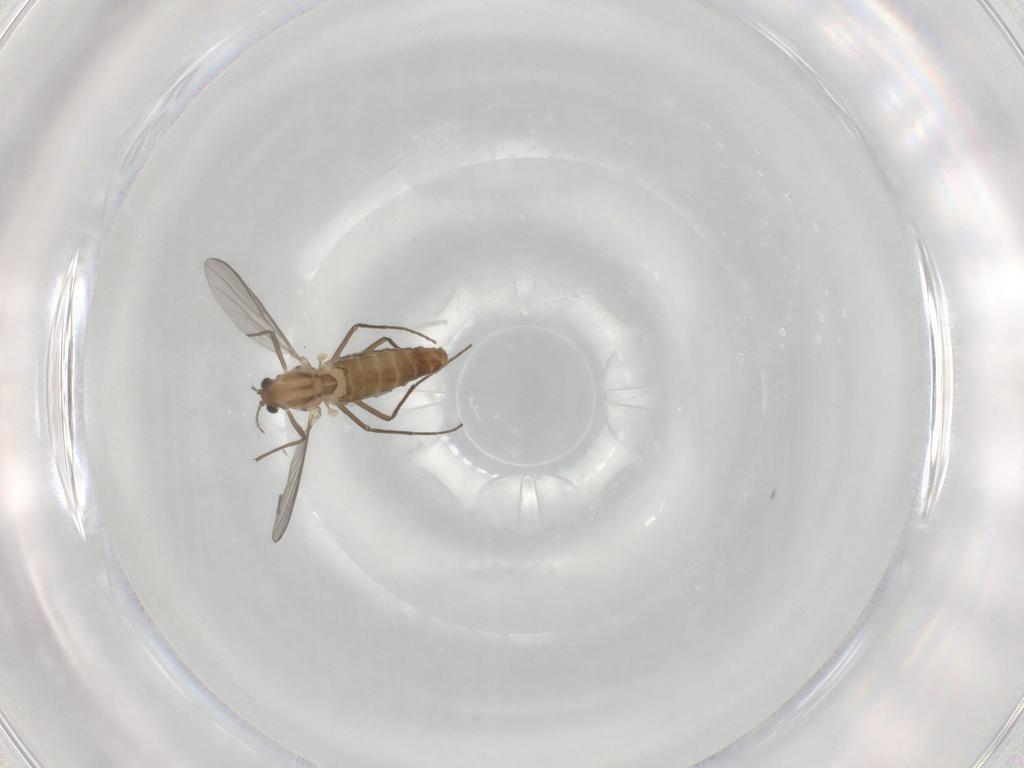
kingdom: Animalia
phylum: Arthropoda
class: Insecta
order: Diptera
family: Chironomidae
